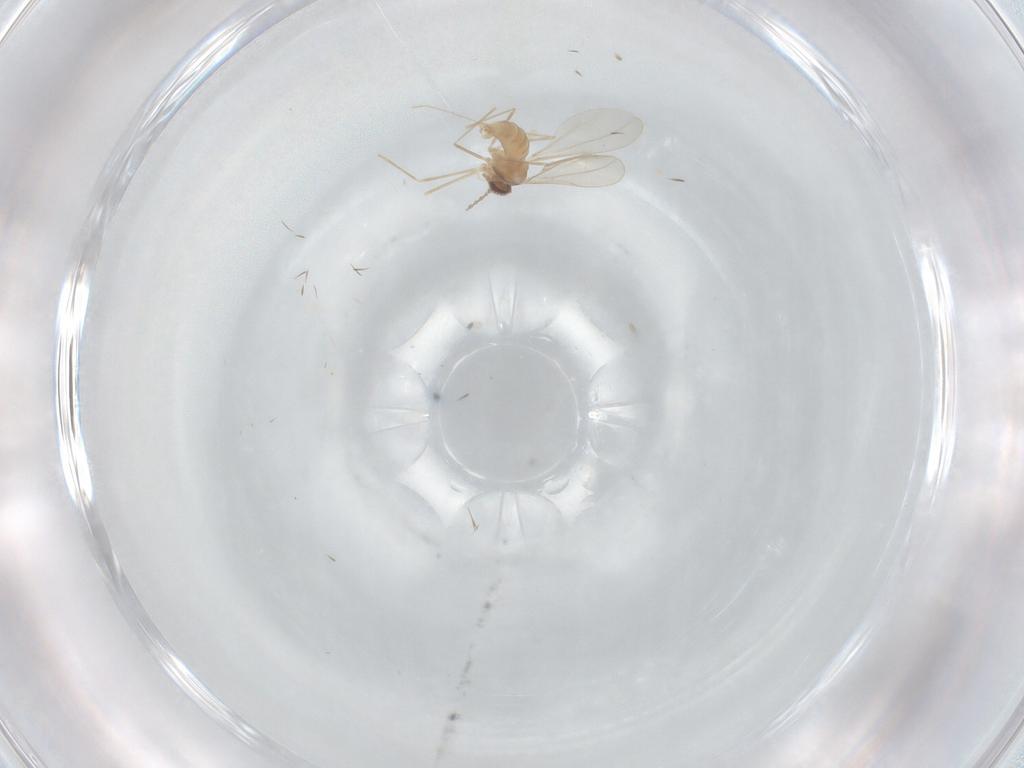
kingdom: Animalia
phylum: Arthropoda
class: Insecta
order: Diptera
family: Cecidomyiidae
